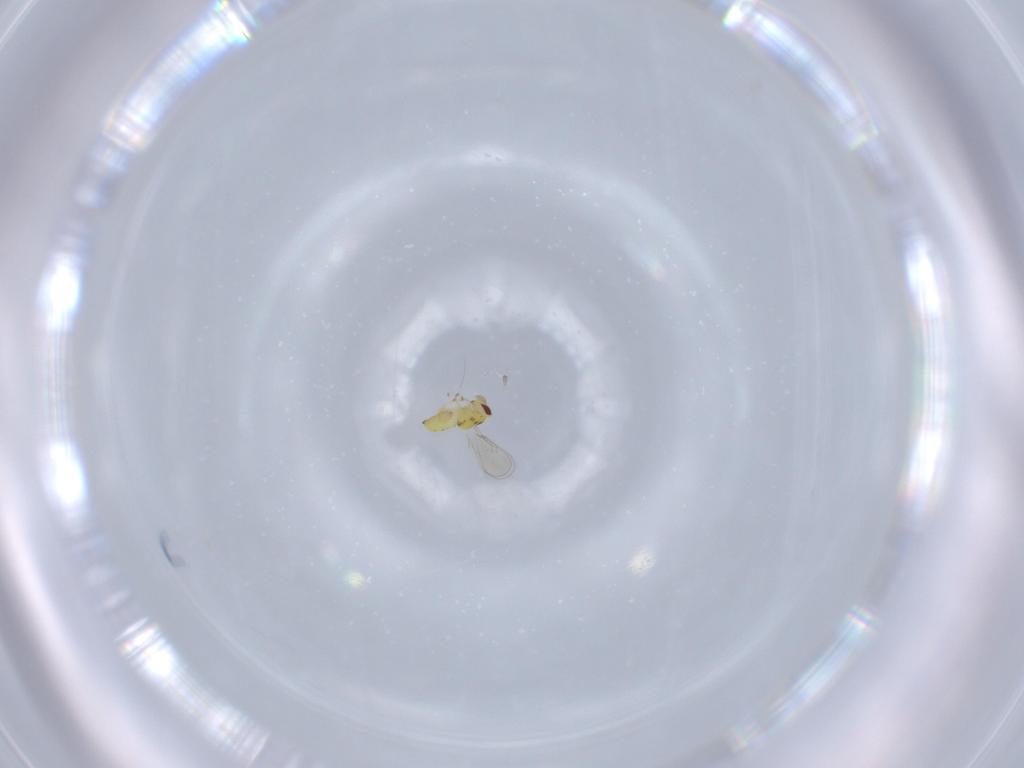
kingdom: Animalia
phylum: Arthropoda
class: Insecta
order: Hymenoptera
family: Eulophidae
